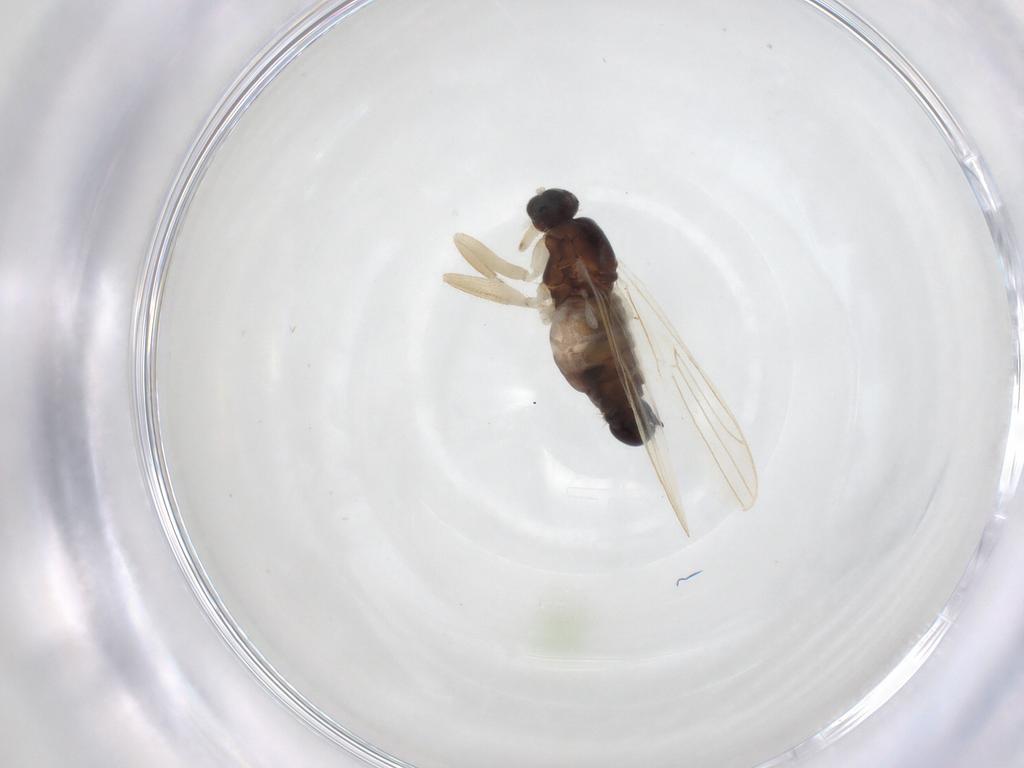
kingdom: Animalia
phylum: Arthropoda
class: Insecta
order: Diptera
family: Hybotidae
